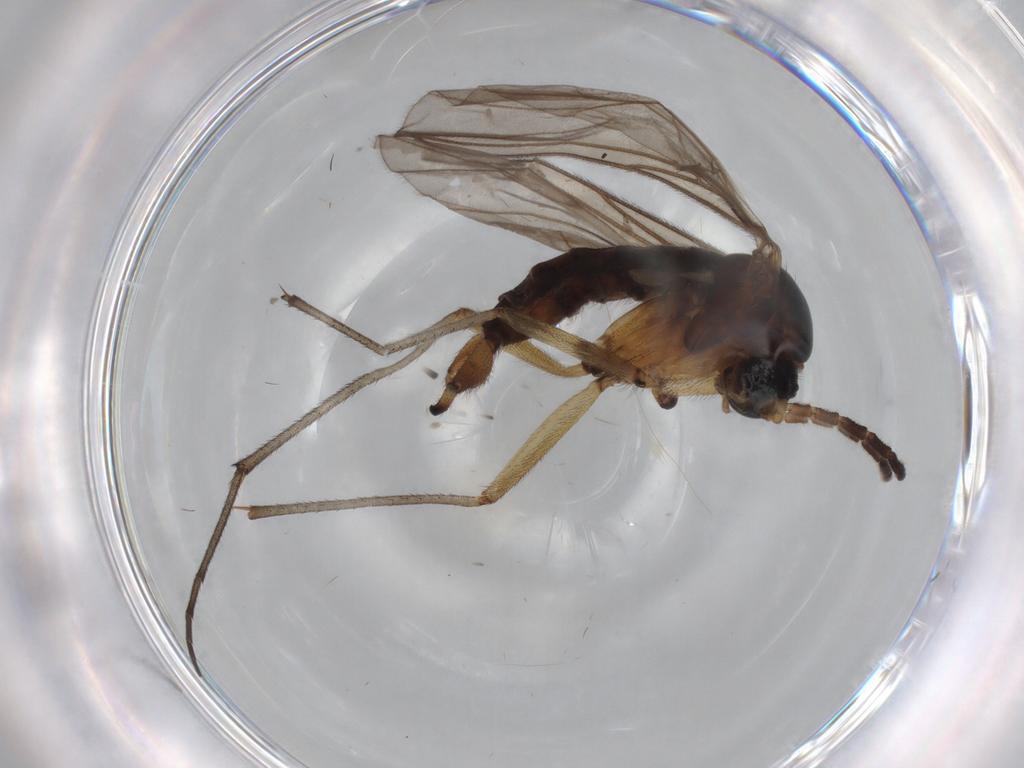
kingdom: Animalia
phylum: Arthropoda
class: Insecta
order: Diptera
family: Sciaridae
